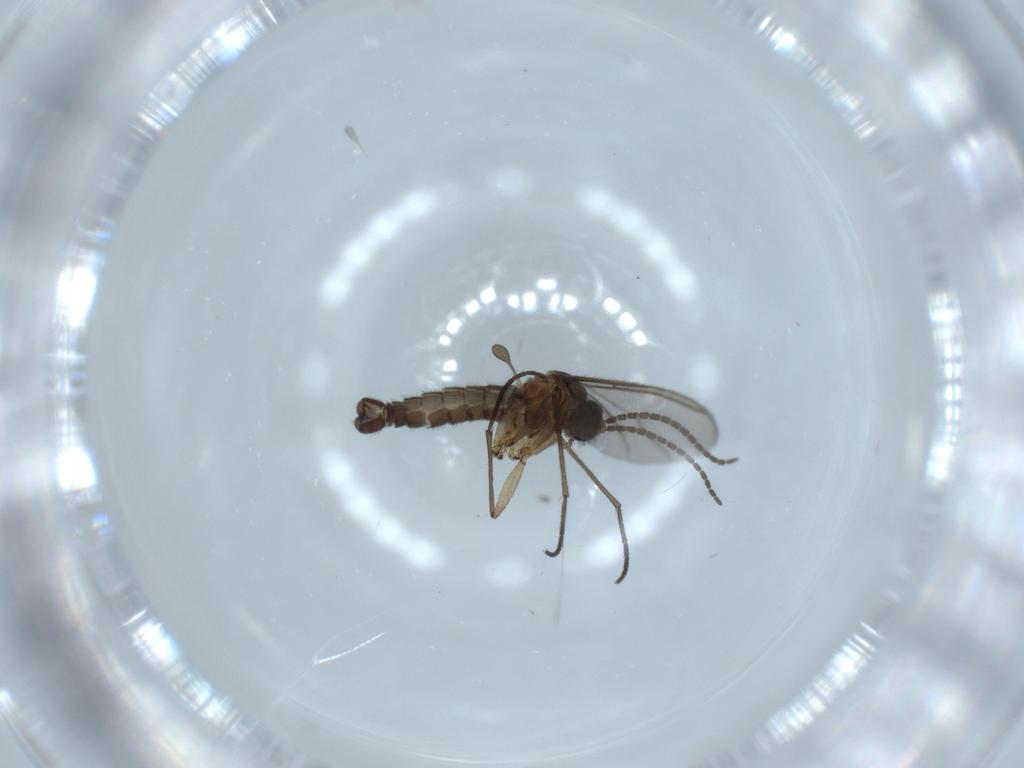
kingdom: Animalia
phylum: Arthropoda
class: Insecta
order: Diptera
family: Sciaridae
